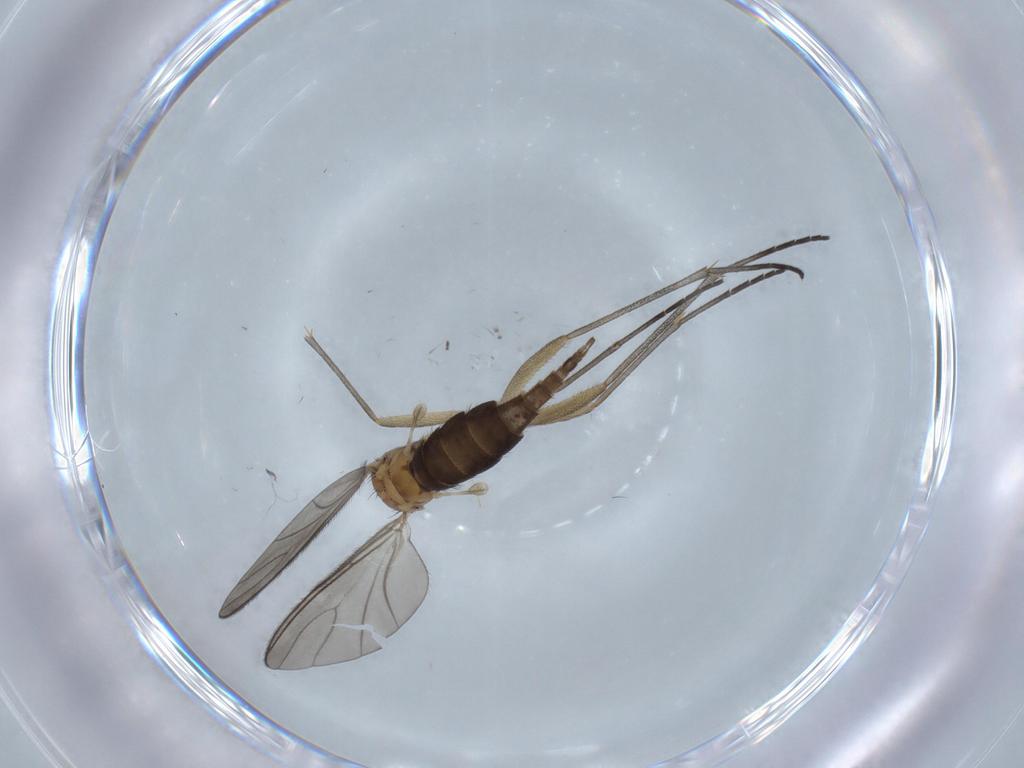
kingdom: Animalia
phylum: Arthropoda
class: Insecta
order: Diptera
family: Sciaridae
